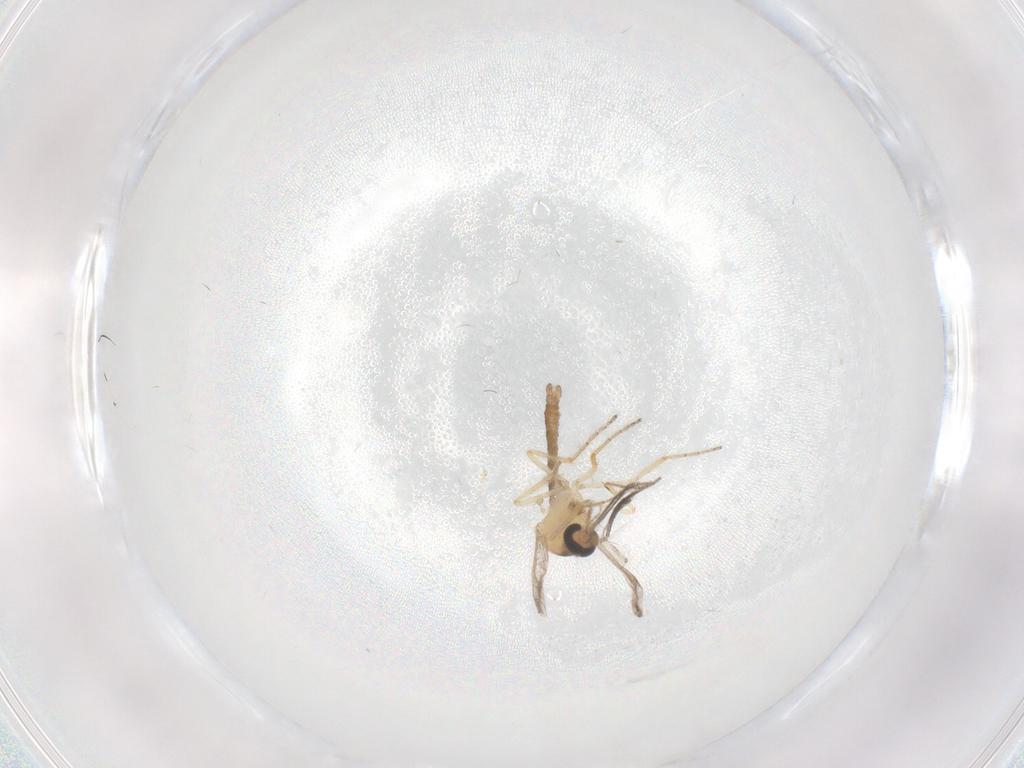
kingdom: Animalia
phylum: Arthropoda
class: Insecta
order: Diptera
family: Ceratopogonidae
